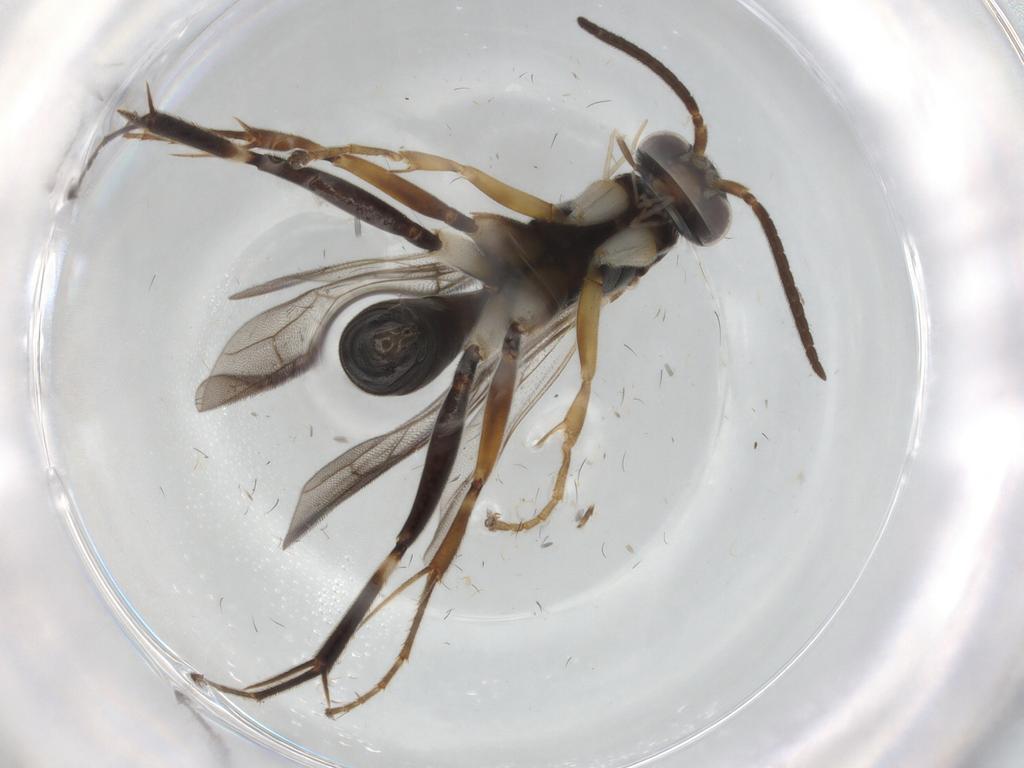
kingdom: Animalia
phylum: Arthropoda
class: Insecta
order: Hymenoptera
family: Pompilidae
